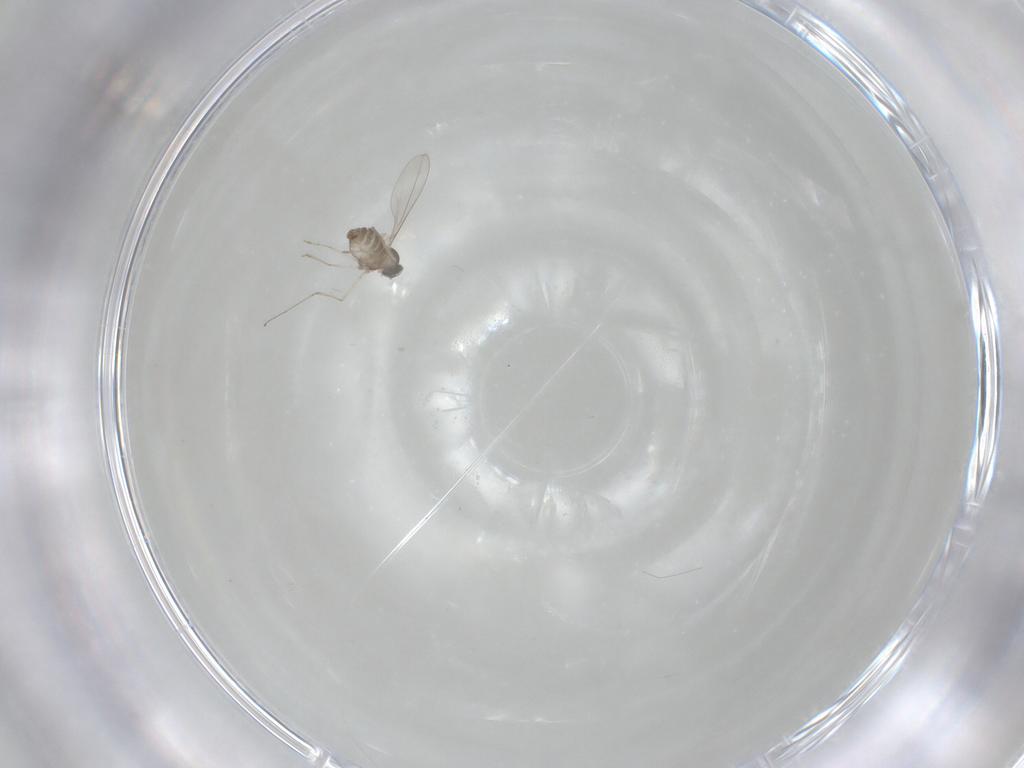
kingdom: Animalia
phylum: Arthropoda
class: Insecta
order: Diptera
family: Cecidomyiidae
